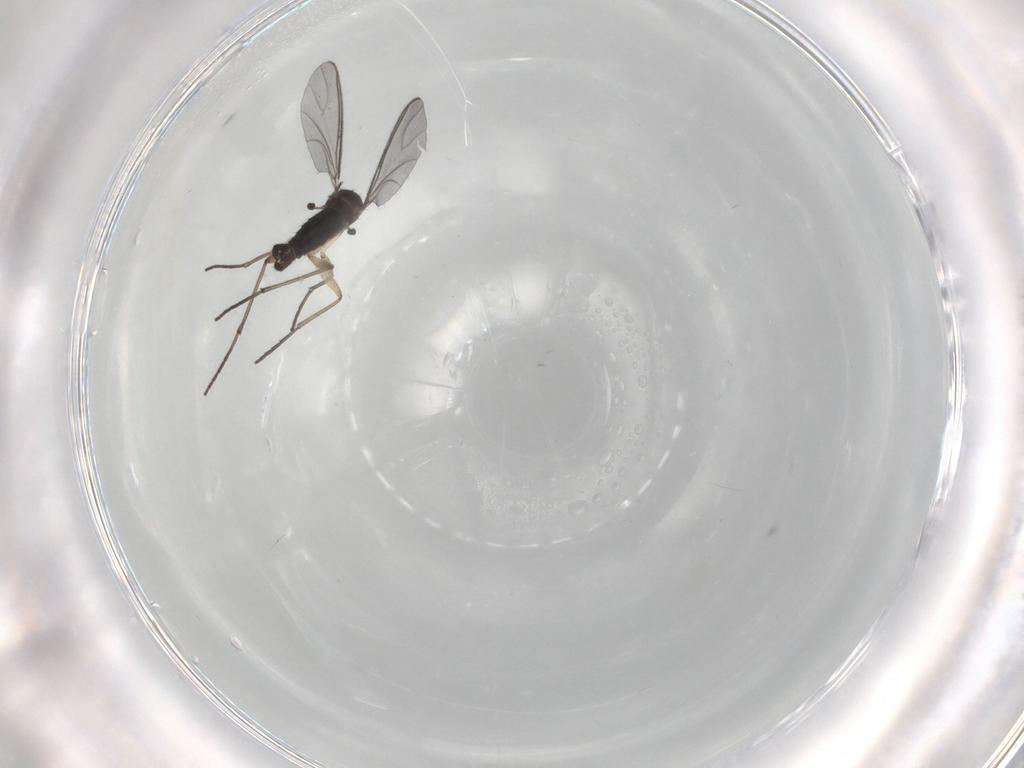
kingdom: Animalia
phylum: Arthropoda
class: Insecta
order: Diptera
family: Sciaridae
